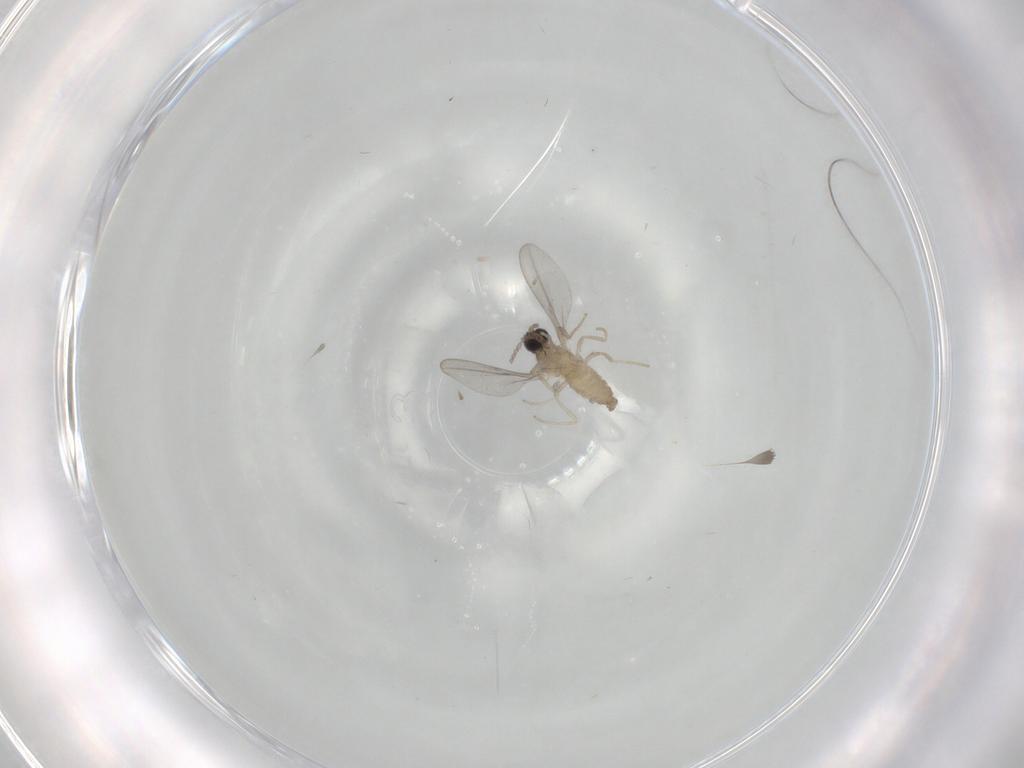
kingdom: Animalia
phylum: Arthropoda
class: Insecta
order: Diptera
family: Cecidomyiidae
